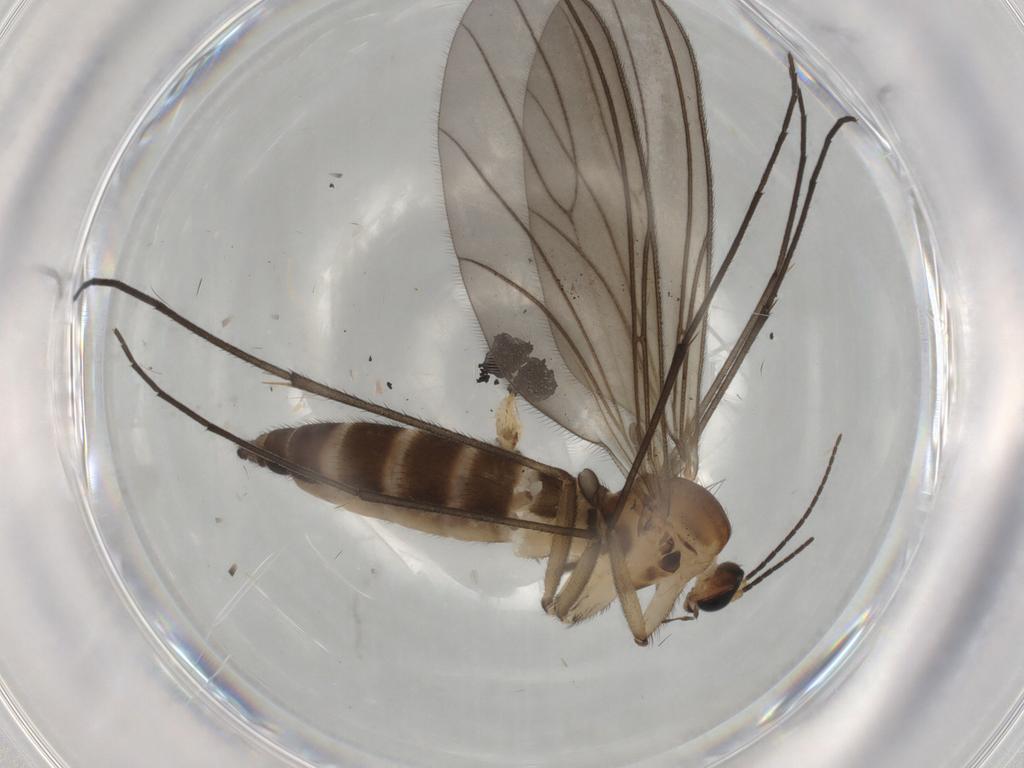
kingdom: Animalia
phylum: Arthropoda
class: Insecta
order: Diptera
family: Sciaridae
